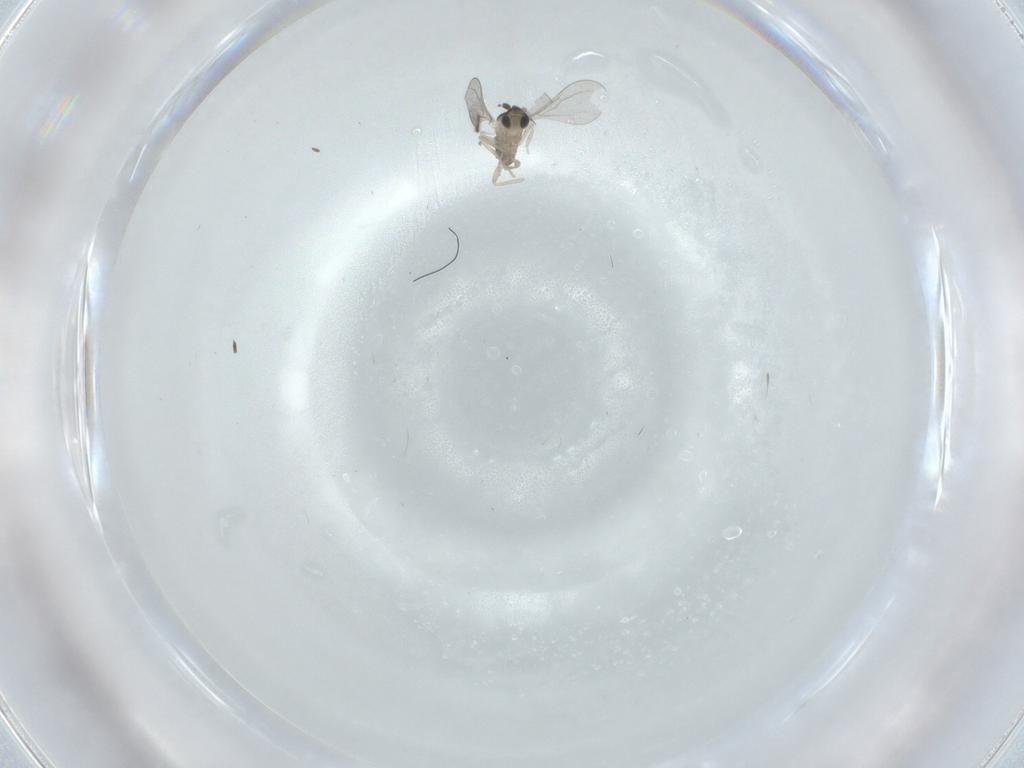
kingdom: Animalia
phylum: Arthropoda
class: Insecta
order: Diptera
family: Cecidomyiidae
